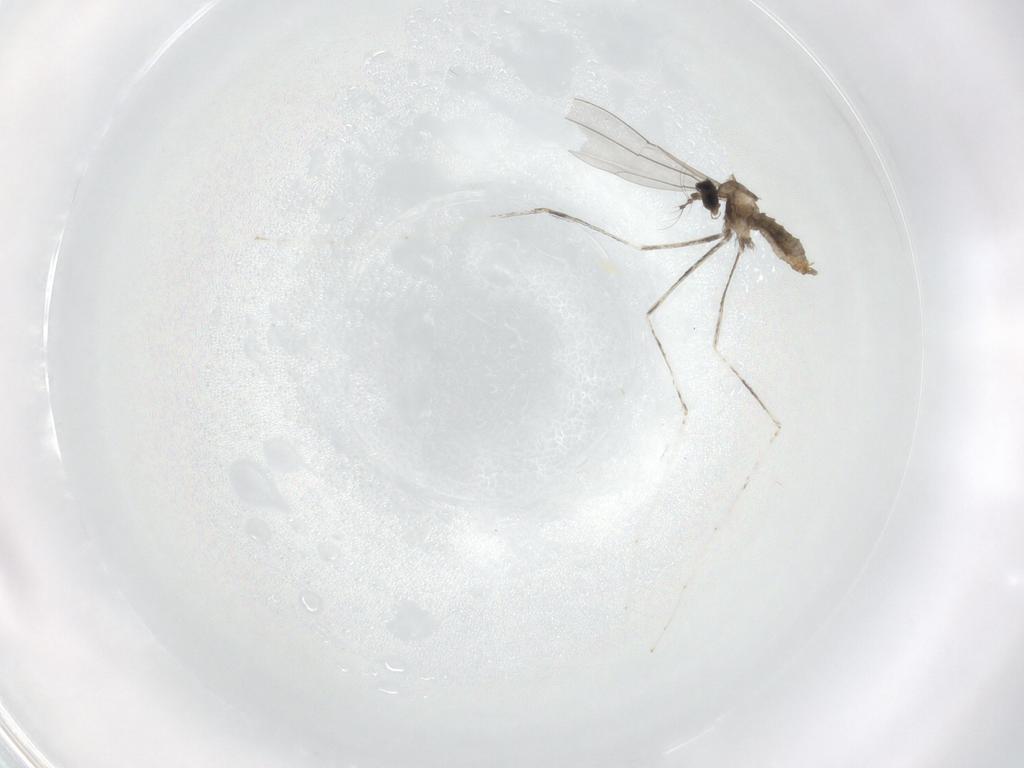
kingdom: Animalia
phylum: Arthropoda
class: Insecta
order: Diptera
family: Cecidomyiidae
